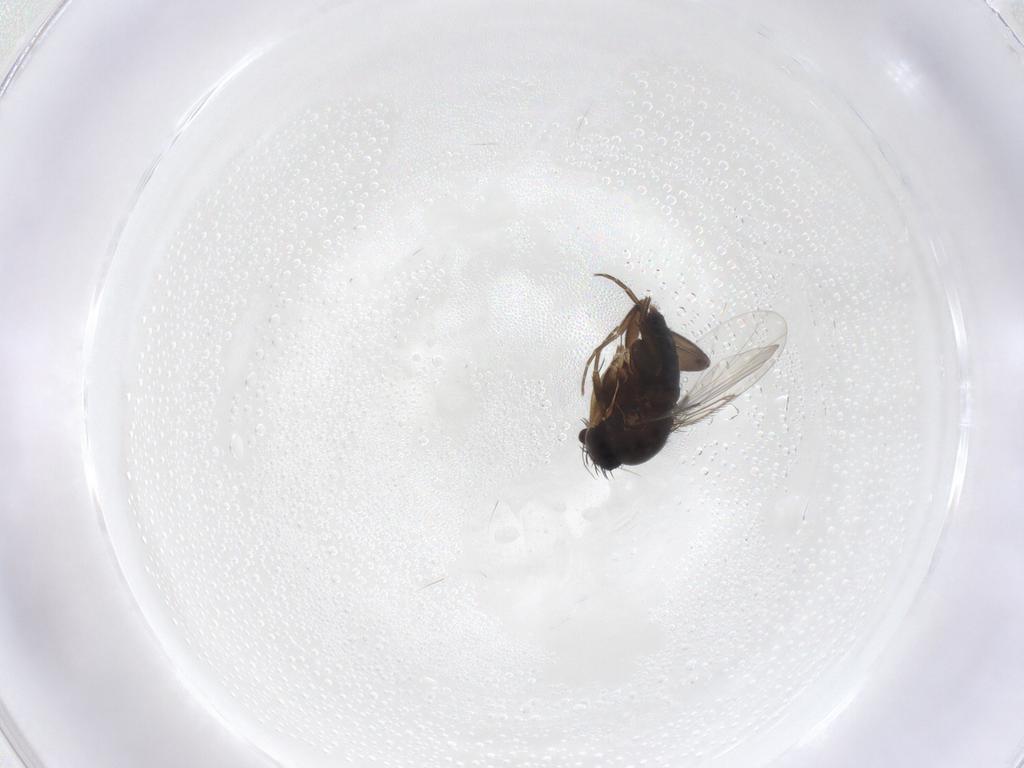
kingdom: Animalia
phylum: Arthropoda
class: Insecta
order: Diptera
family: Phoridae
